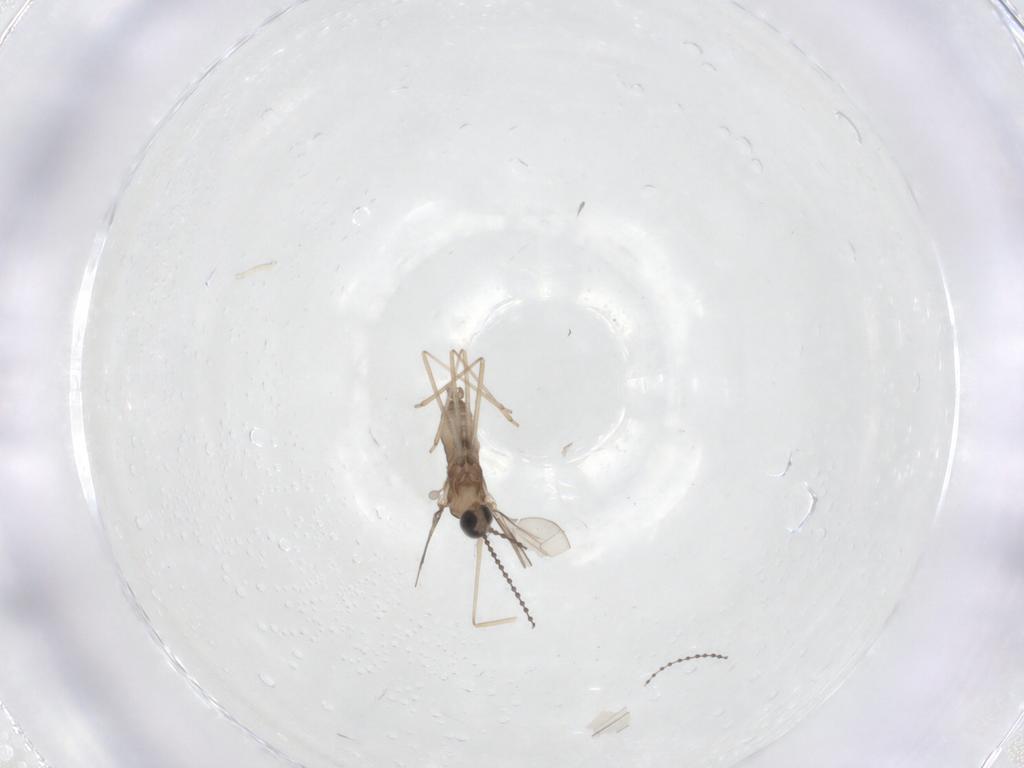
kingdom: Animalia
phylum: Arthropoda
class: Insecta
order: Diptera
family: Cecidomyiidae
